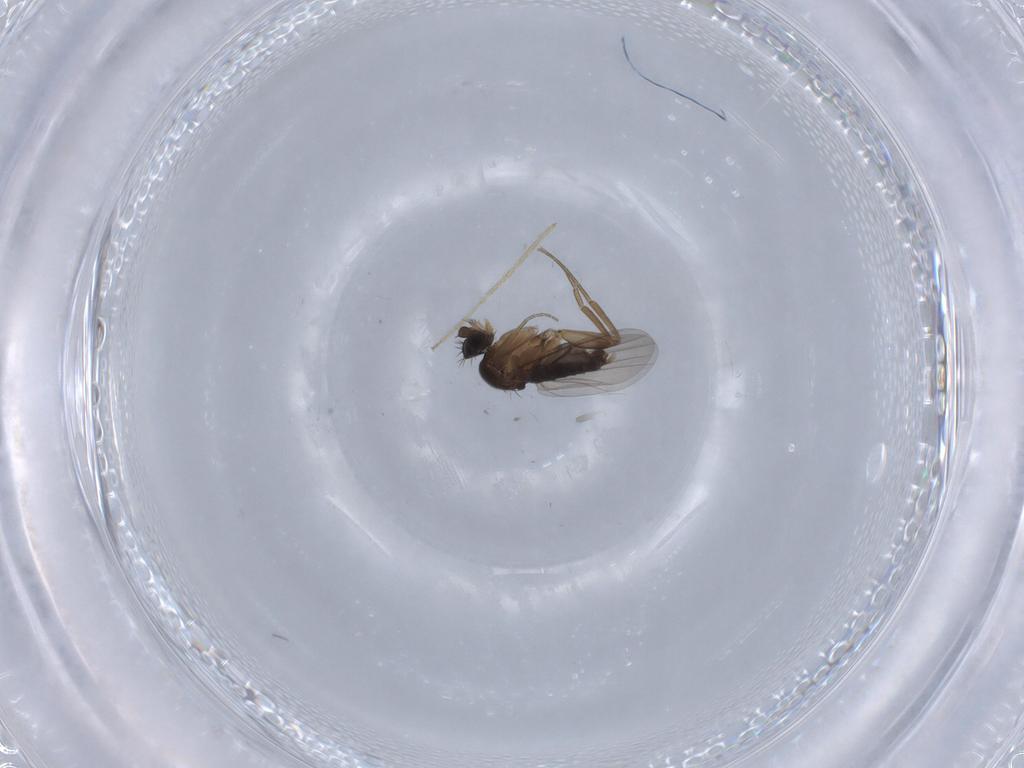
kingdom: Animalia
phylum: Arthropoda
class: Insecta
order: Diptera
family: Phoridae
